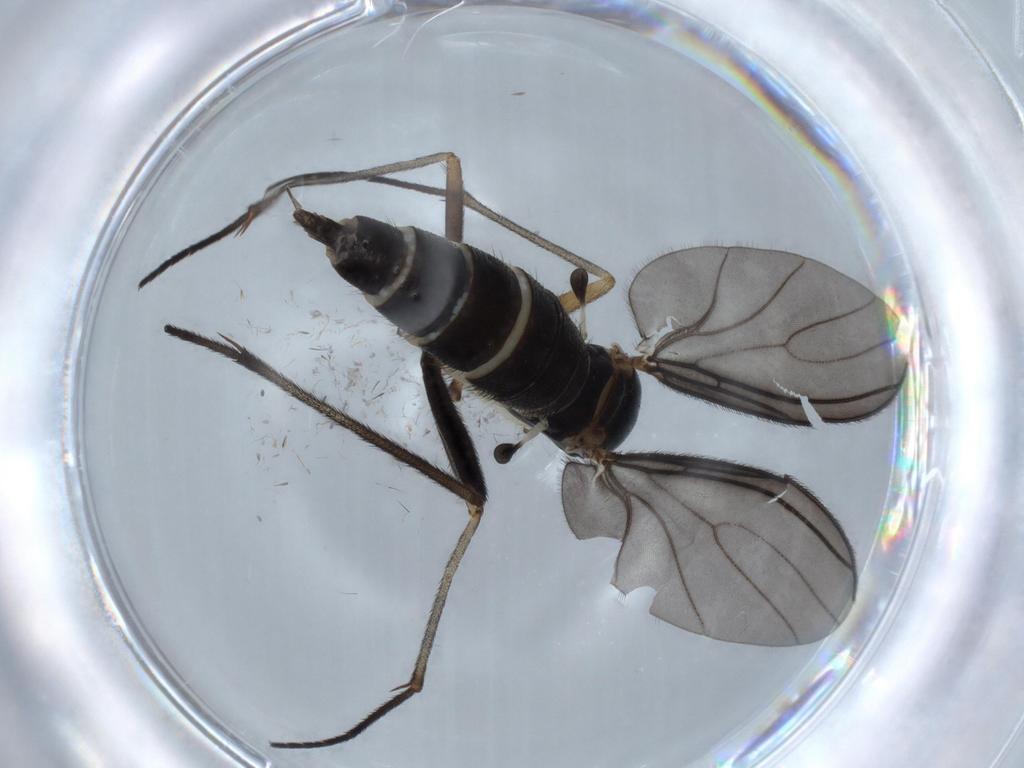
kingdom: Animalia
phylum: Arthropoda
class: Insecta
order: Diptera
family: Sciaridae
